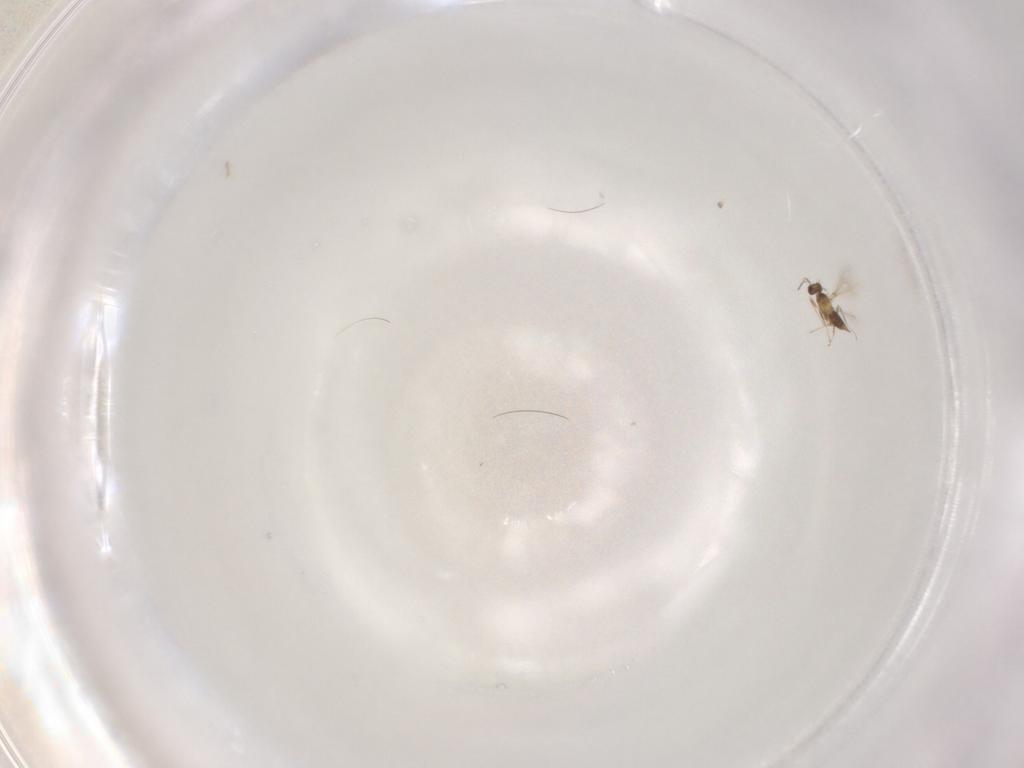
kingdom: Animalia
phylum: Arthropoda
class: Insecta
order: Hymenoptera
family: Mymaridae
